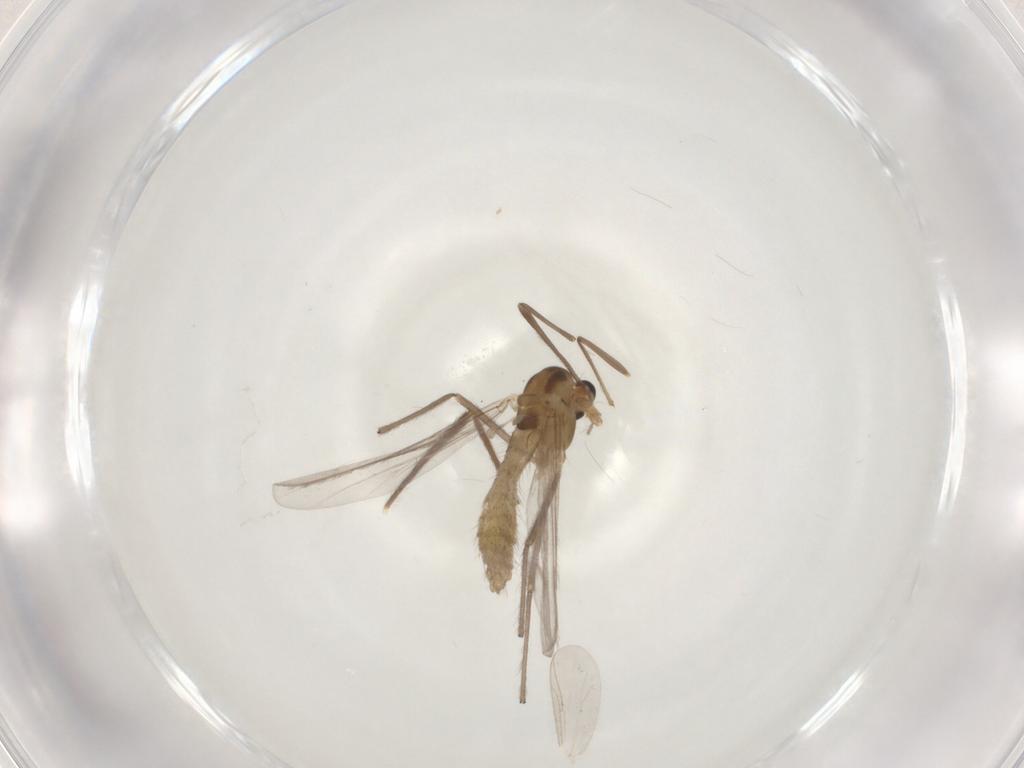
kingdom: Animalia
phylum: Arthropoda
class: Insecta
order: Diptera
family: Chironomidae
